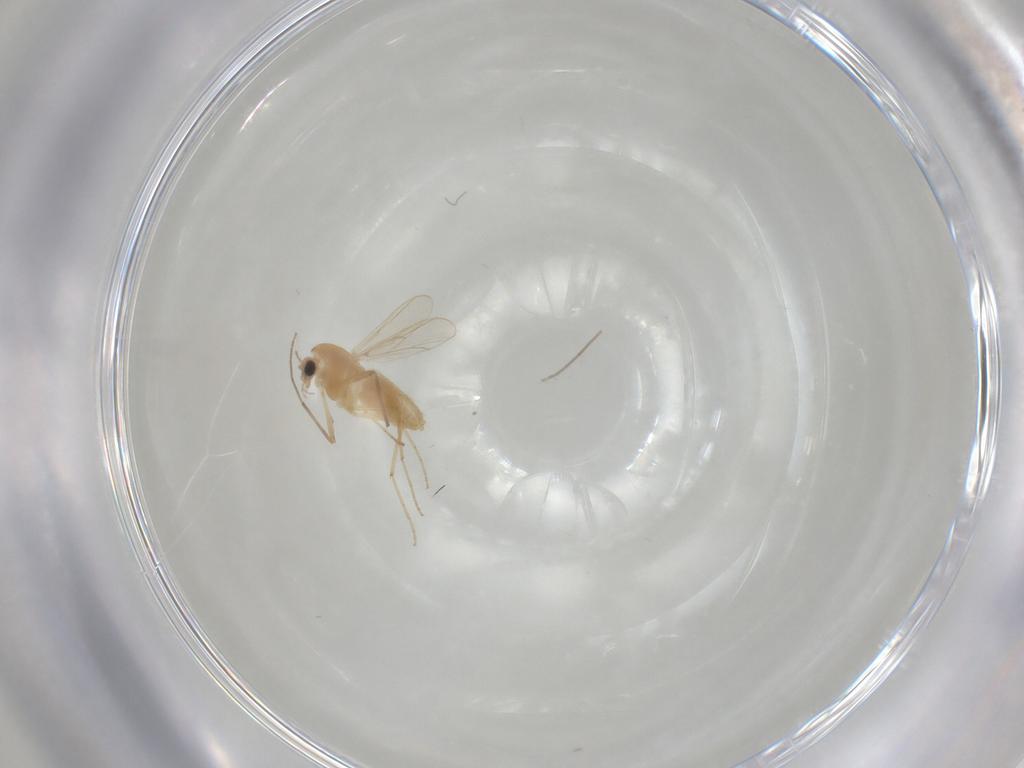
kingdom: Animalia
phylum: Arthropoda
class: Insecta
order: Diptera
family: Chironomidae
